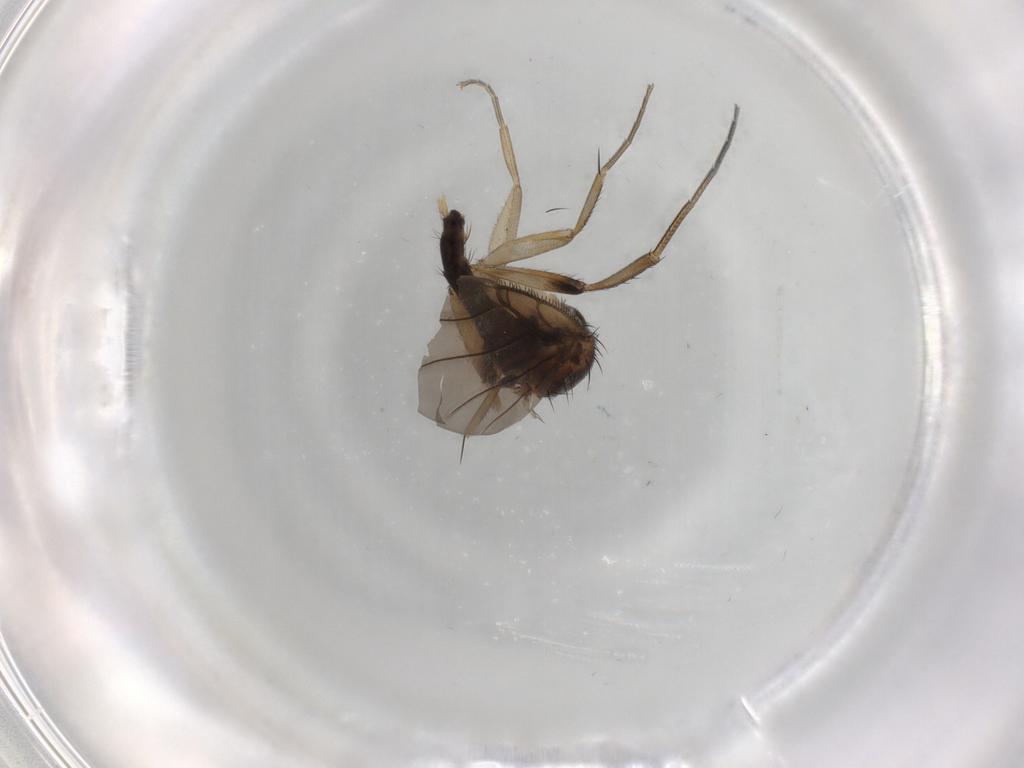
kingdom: Animalia
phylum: Arthropoda
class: Insecta
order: Diptera
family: Phoridae
